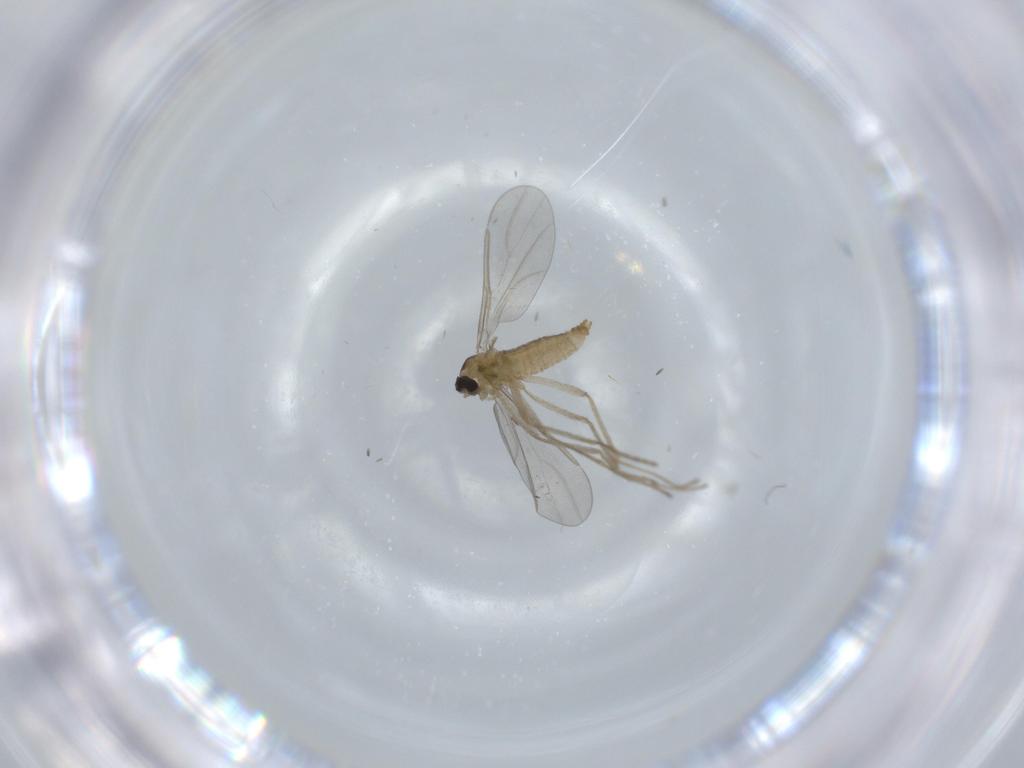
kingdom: Animalia
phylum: Arthropoda
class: Insecta
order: Diptera
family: Cecidomyiidae
